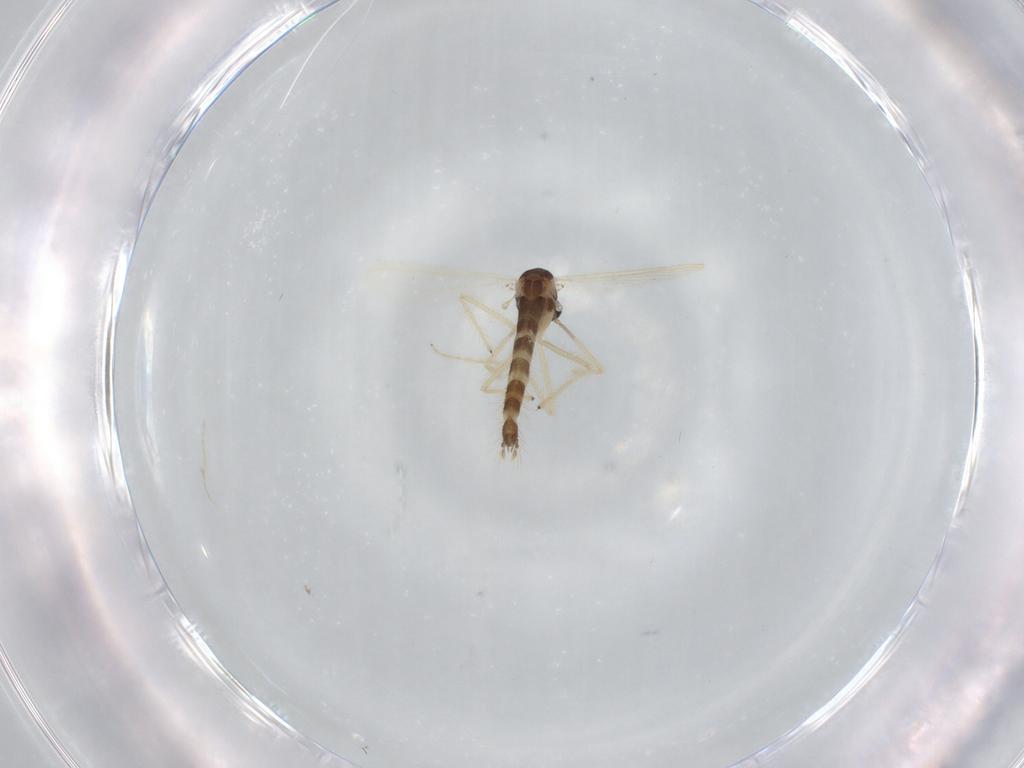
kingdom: Animalia
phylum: Arthropoda
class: Insecta
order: Diptera
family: Chironomidae
